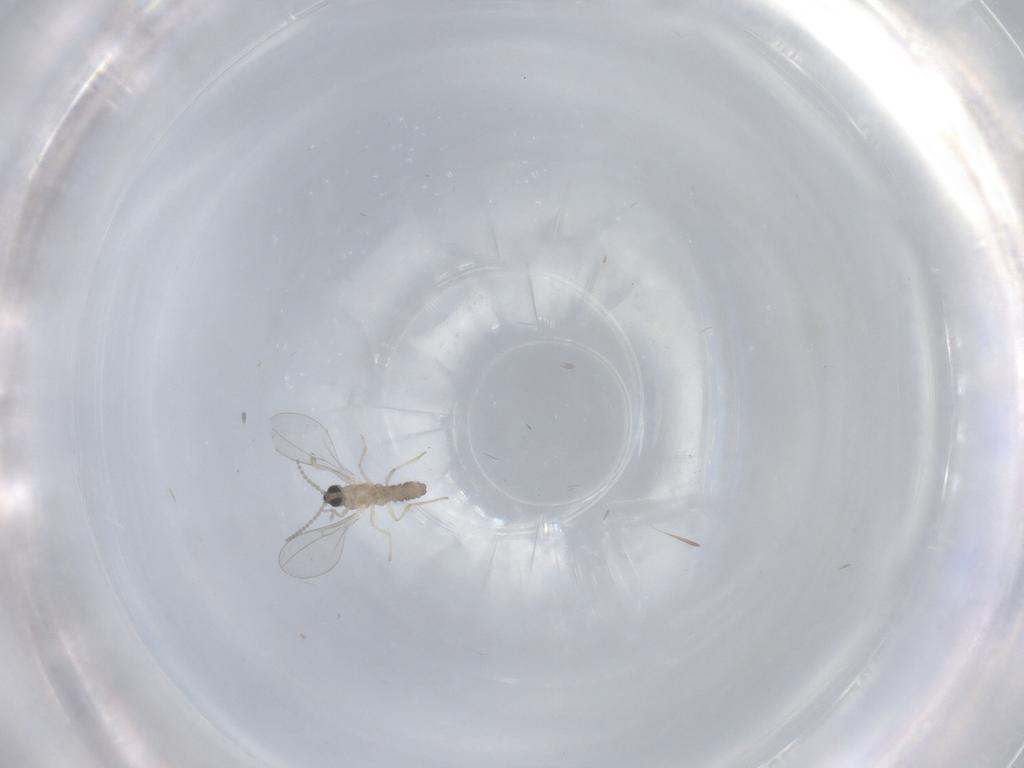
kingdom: Animalia
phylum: Arthropoda
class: Insecta
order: Diptera
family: Cecidomyiidae
